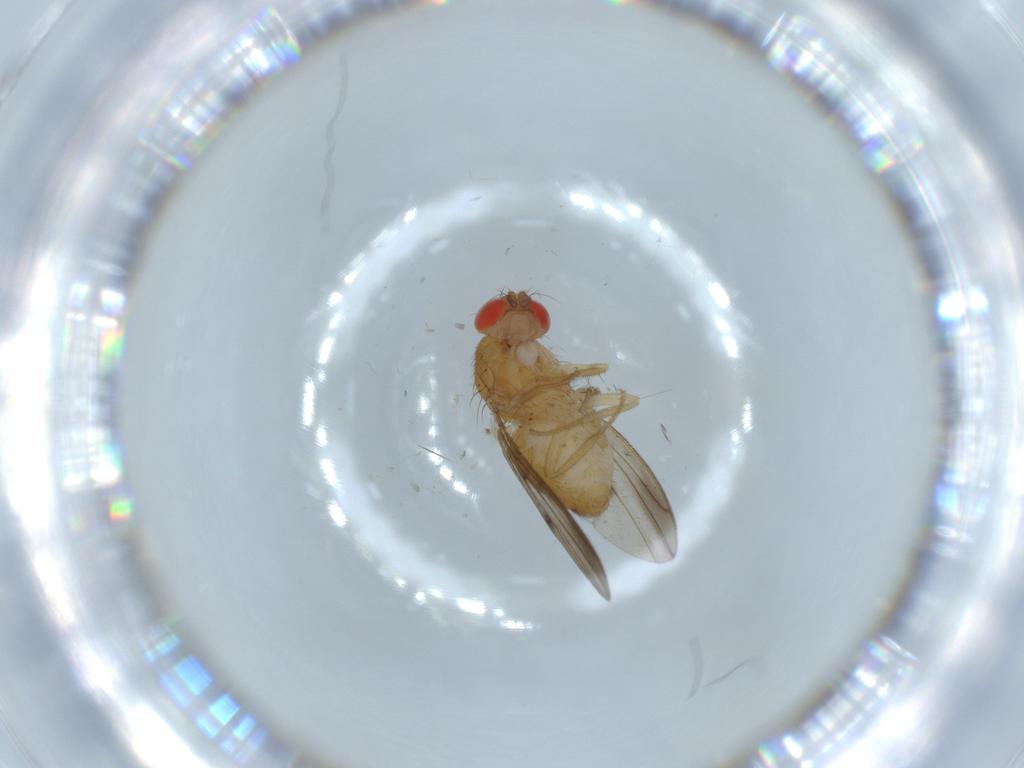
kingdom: Animalia
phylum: Arthropoda
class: Insecta
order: Diptera
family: Drosophilidae
